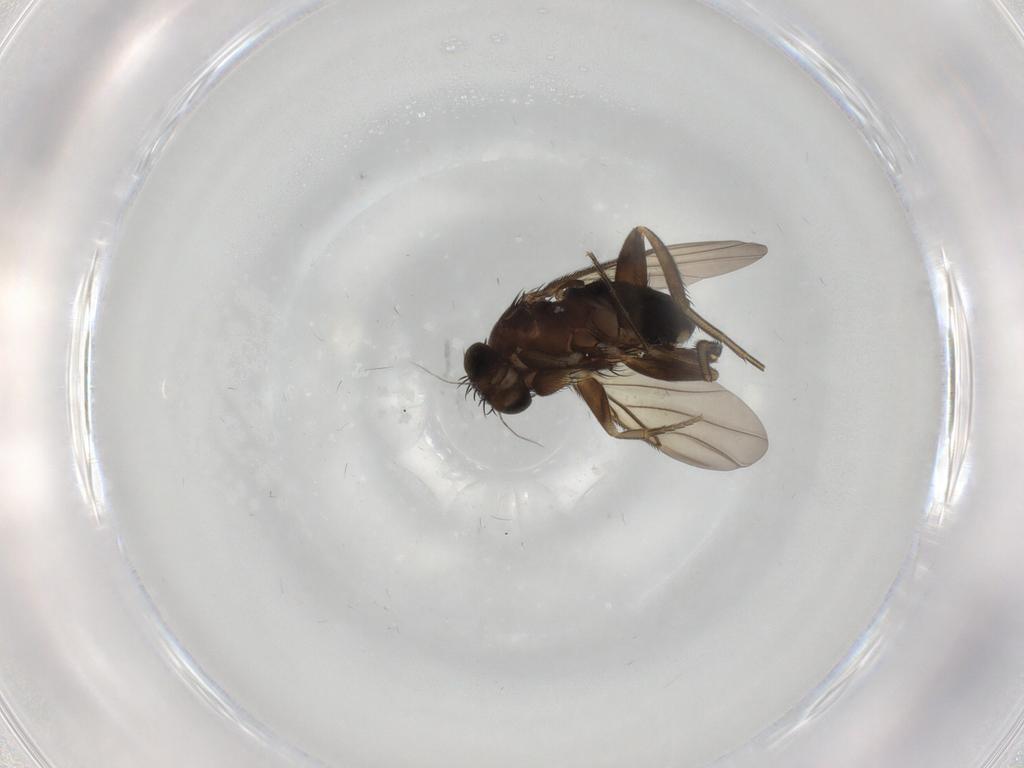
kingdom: Animalia
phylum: Arthropoda
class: Insecta
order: Diptera
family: Phoridae
